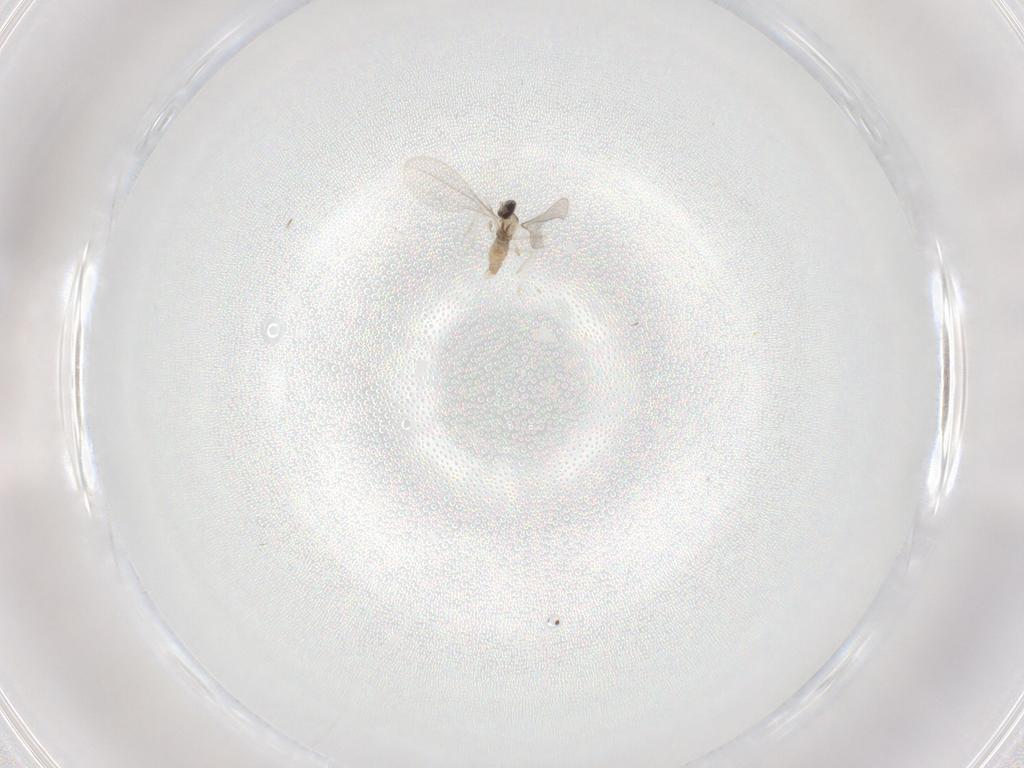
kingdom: Animalia
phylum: Arthropoda
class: Insecta
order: Diptera
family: Cecidomyiidae
